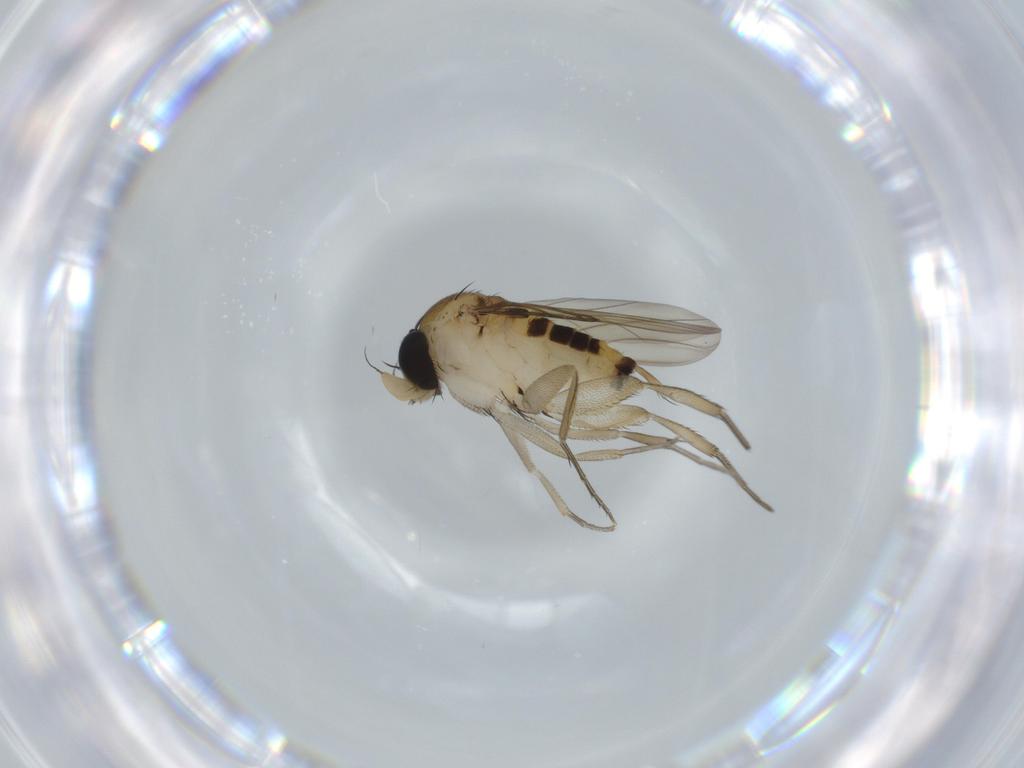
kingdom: Animalia
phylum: Arthropoda
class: Insecta
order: Diptera
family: Phoridae
